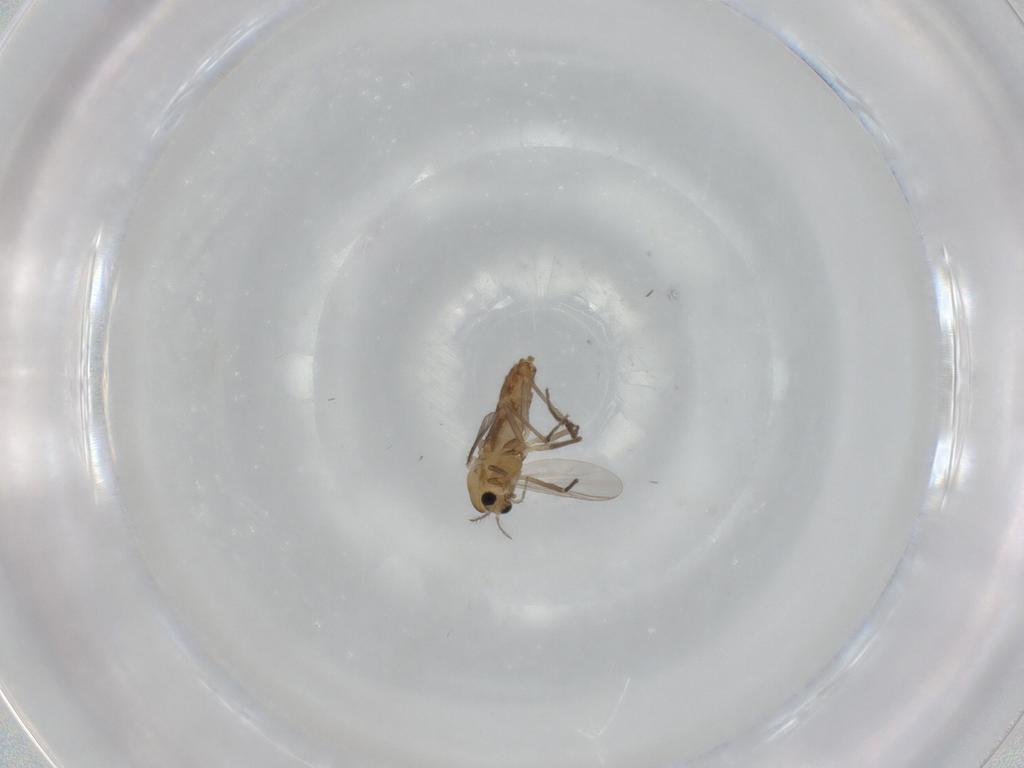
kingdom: Animalia
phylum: Arthropoda
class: Insecta
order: Diptera
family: Chironomidae
